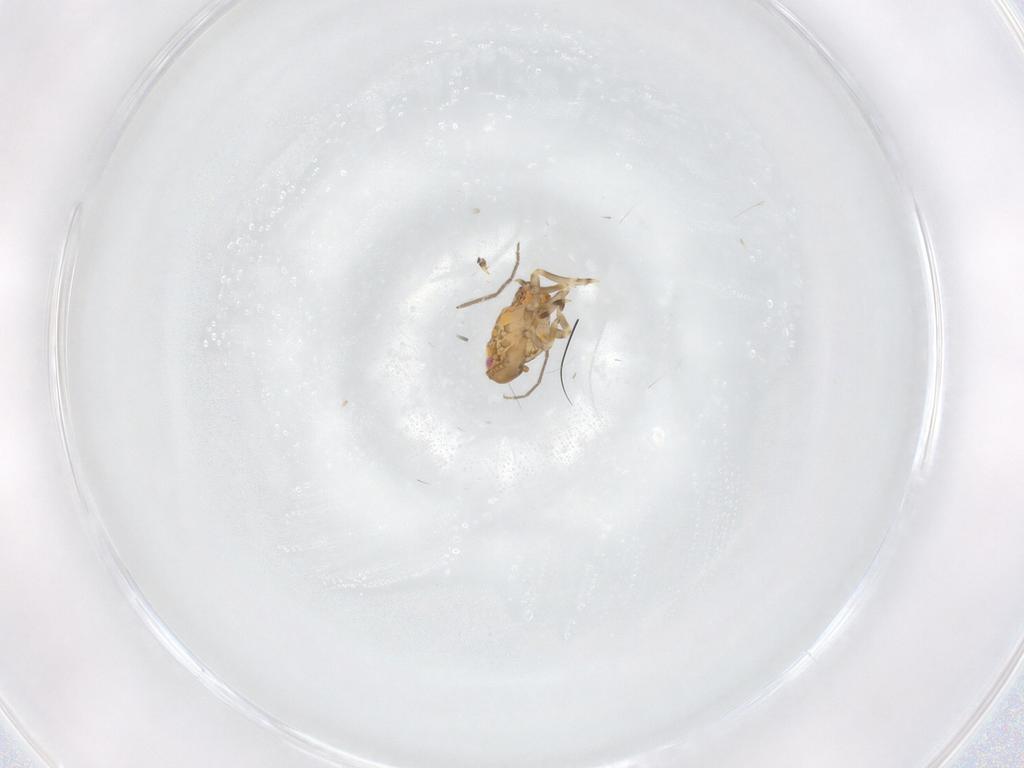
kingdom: Animalia
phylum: Arthropoda
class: Insecta
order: Hemiptera
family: Flatidae
